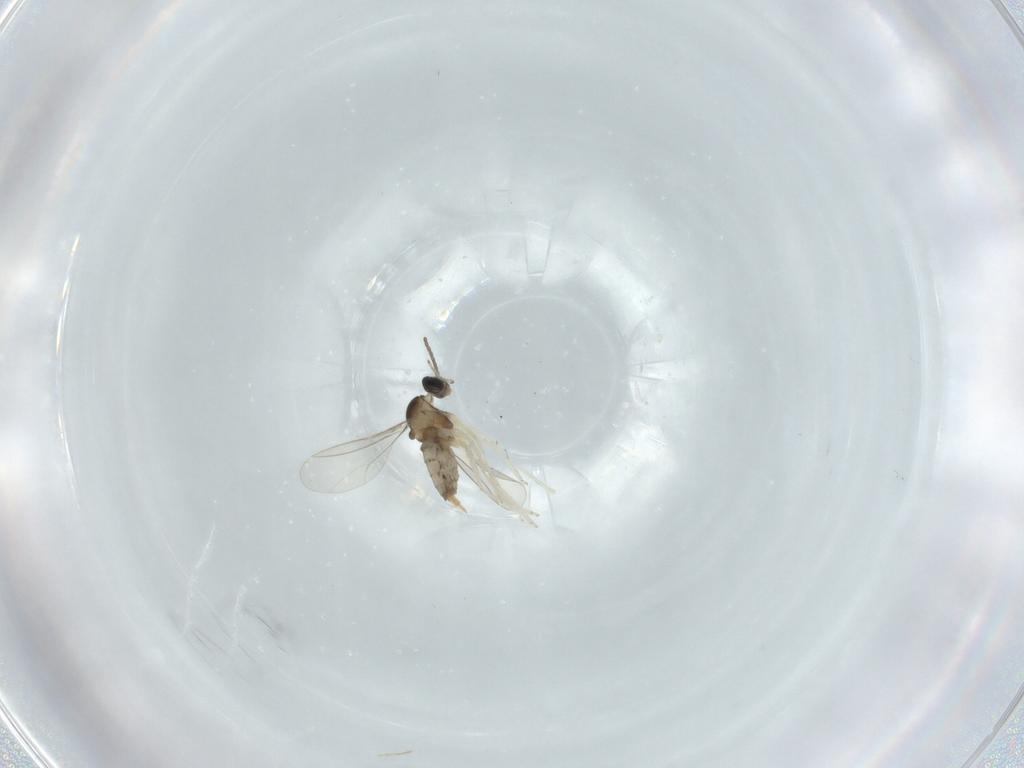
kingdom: Animalia
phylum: Arthropoda
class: Insecta
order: Diptera
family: Cecidomyiidae
